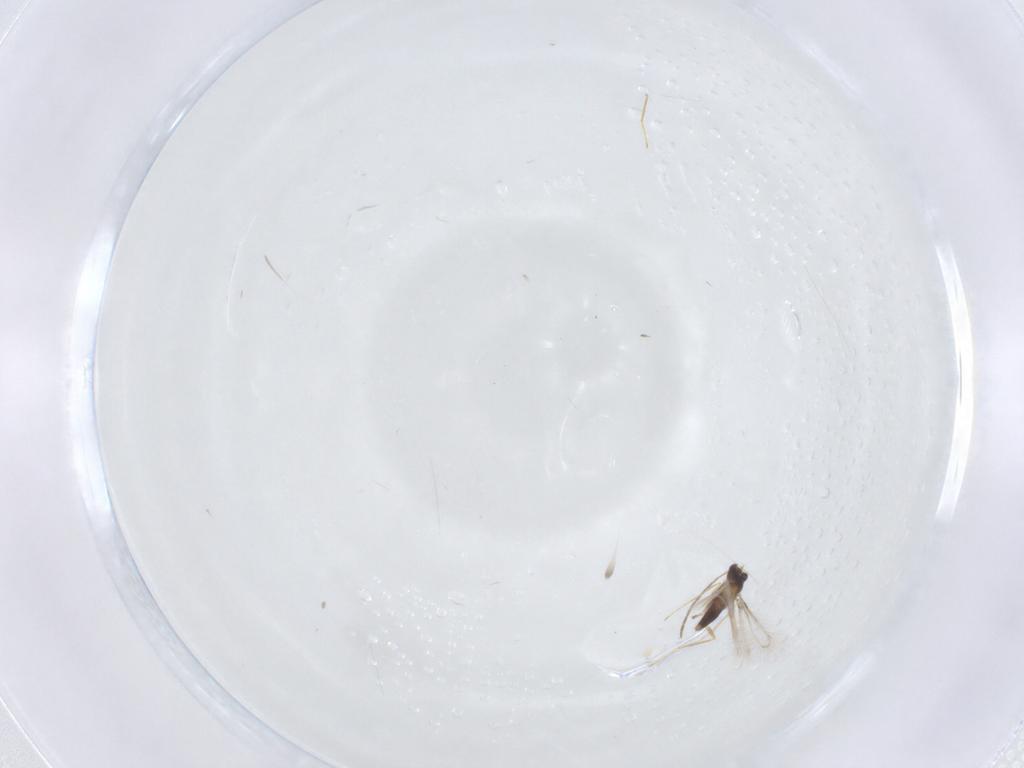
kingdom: Animalia
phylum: Arthropoda
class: Insecta
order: Hymenoptera
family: Mymaridae
